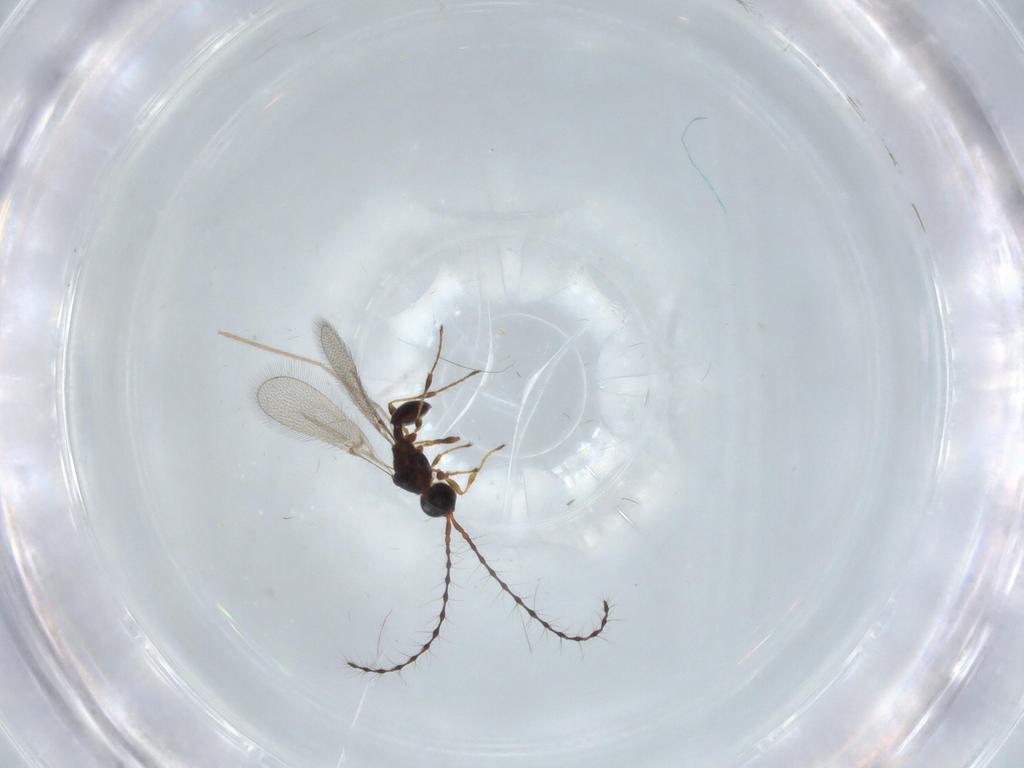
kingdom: Animalia
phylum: Arthropoda
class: Insecta
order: Hymenoptera
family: Diapriidae
